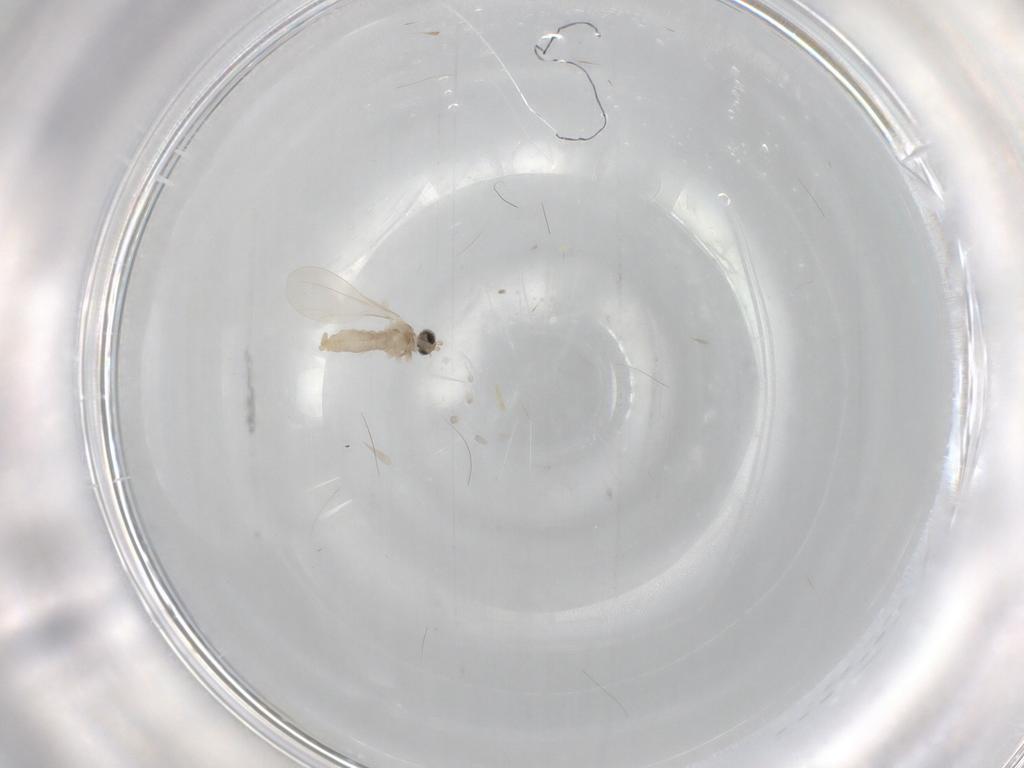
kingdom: Animalia
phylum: Arthropoda
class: Insecta
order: Diptera
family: Cecidomyiidae
